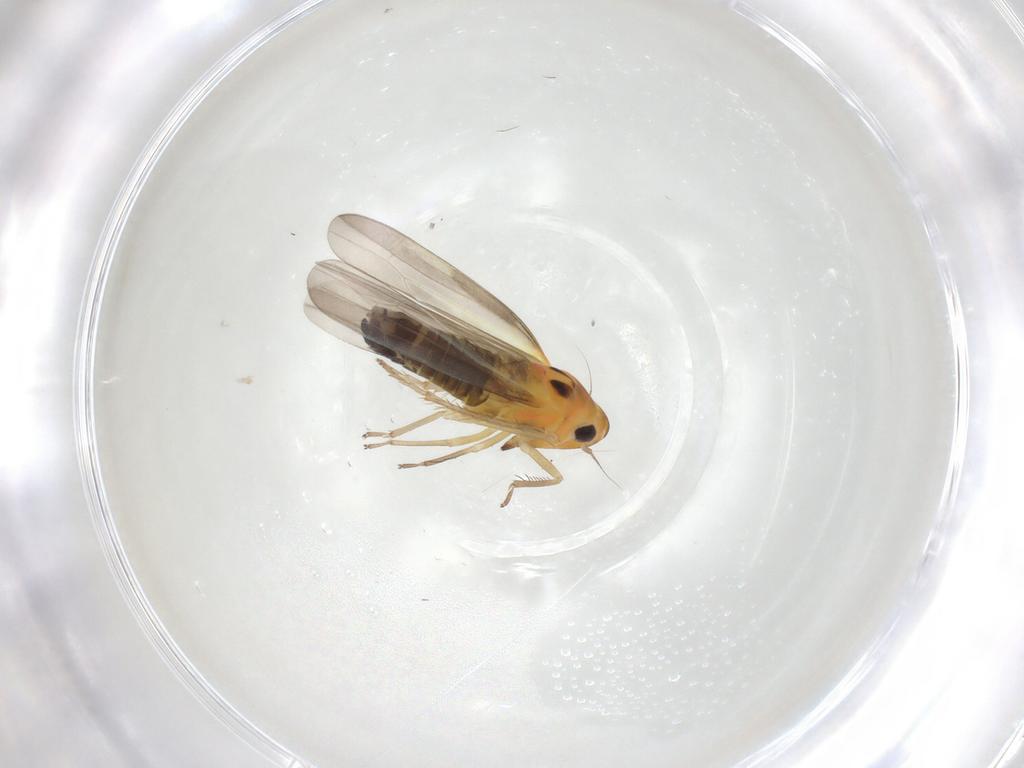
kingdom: Animalia
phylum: Arthropoda
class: Insecta
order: Hemiptera
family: Cicadellidae
